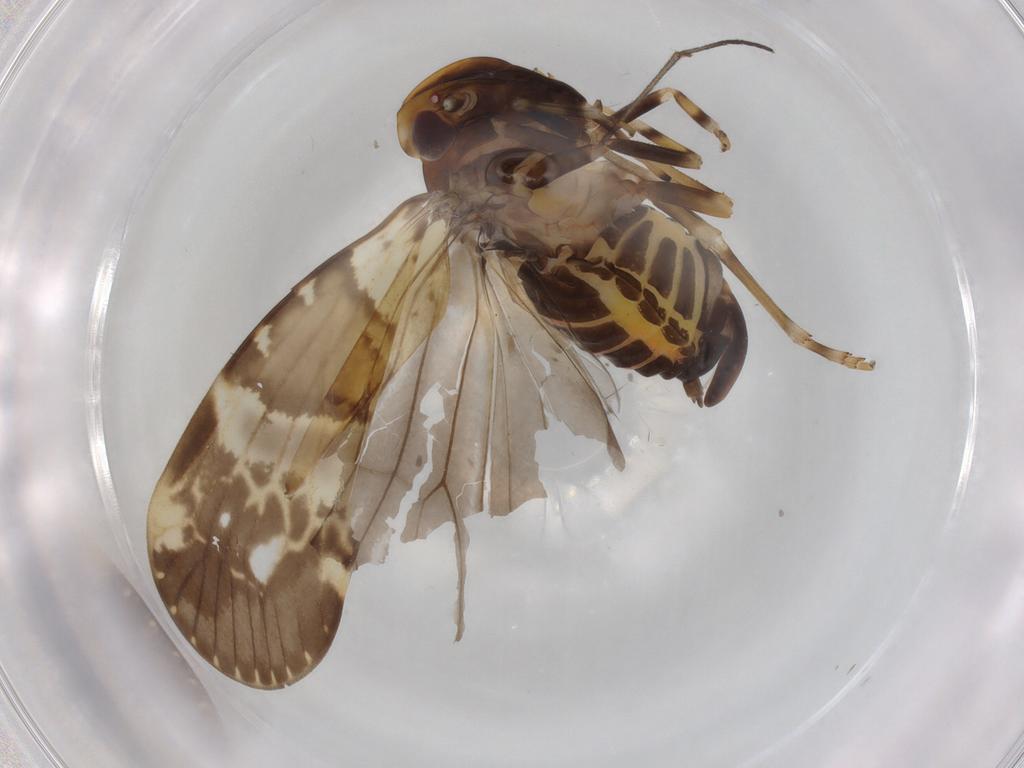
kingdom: Animalia
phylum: Arthropoda
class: Insecta
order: Hemiptera
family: Cixiidae
